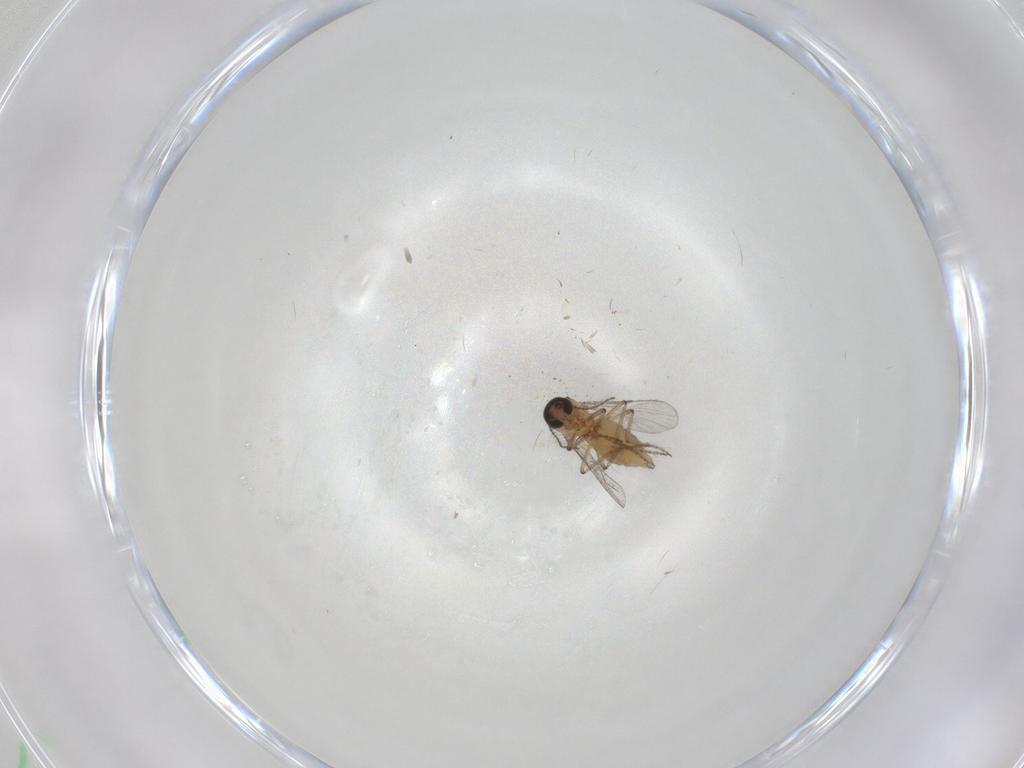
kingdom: Animalia
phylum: Arthropoda
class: Insecta
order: Diptera
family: Ceratopogonidae
